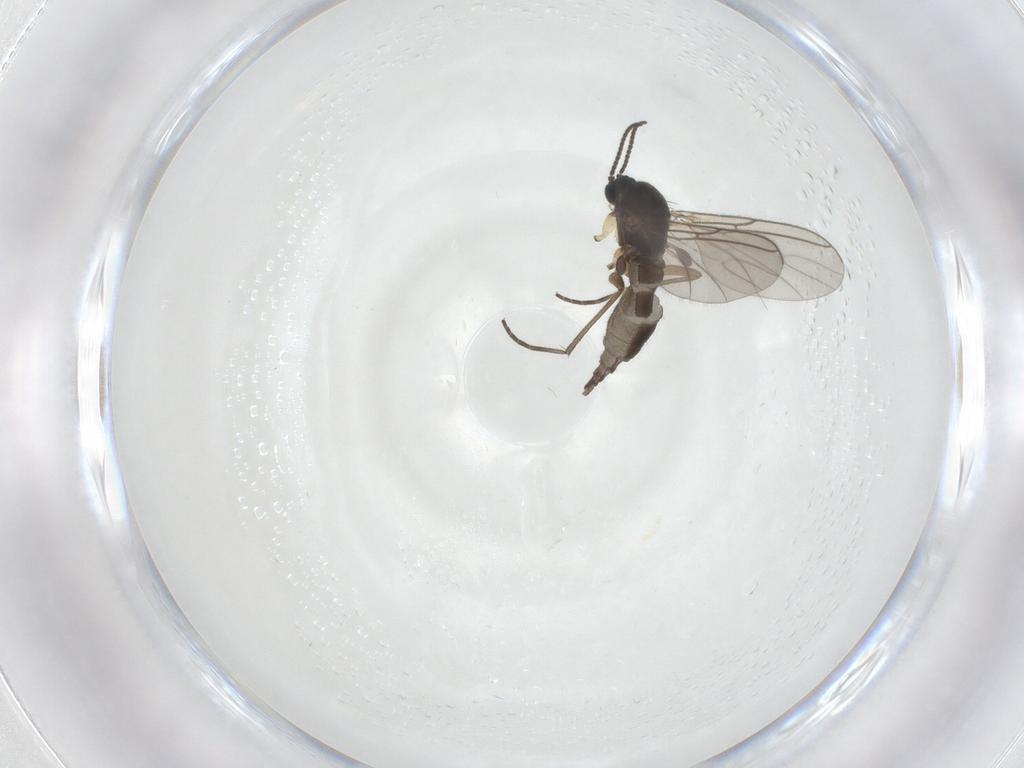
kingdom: Animalia
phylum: Arthropoda
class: Insecta
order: Diptera
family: Sciaridae
